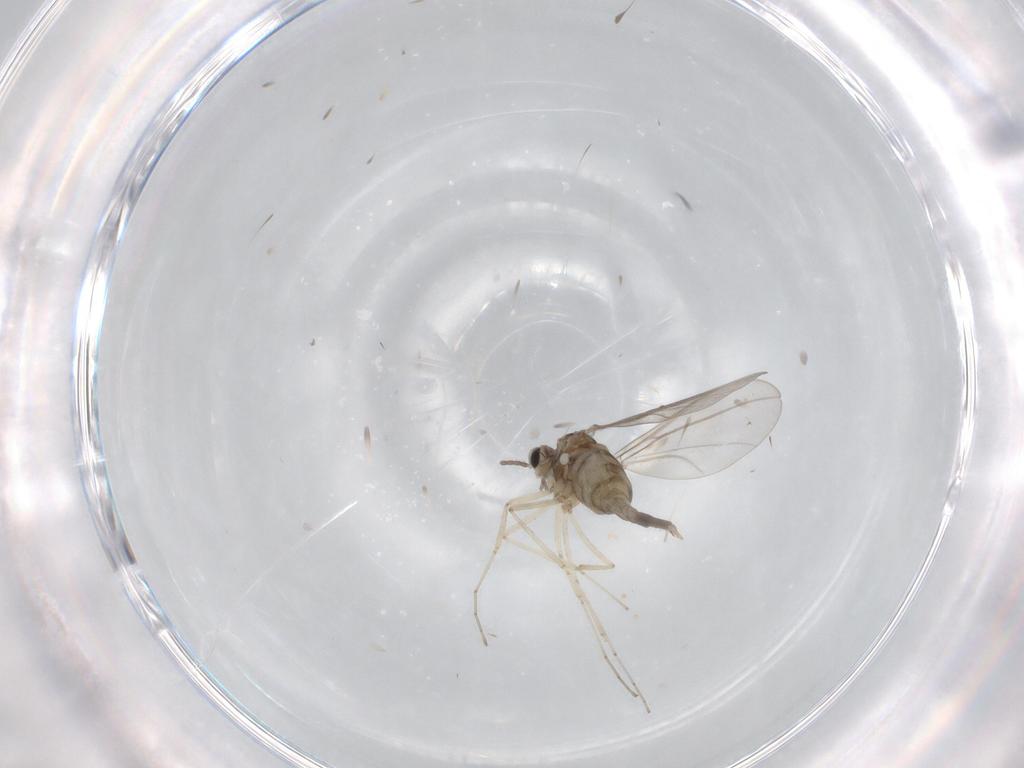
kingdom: Animalia
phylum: Arthropoda
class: Insecta
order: Diptera
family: Cecidomyiidae
